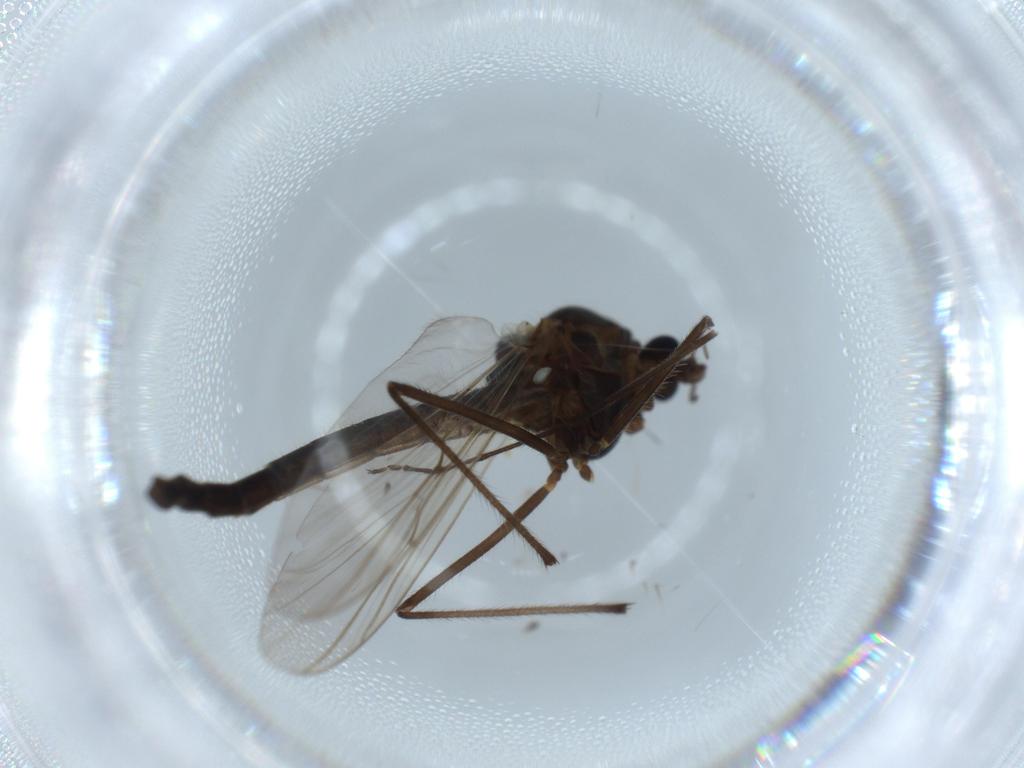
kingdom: Animalia
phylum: Arthropoda
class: Insecta
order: Diptera
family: Chironomidae
